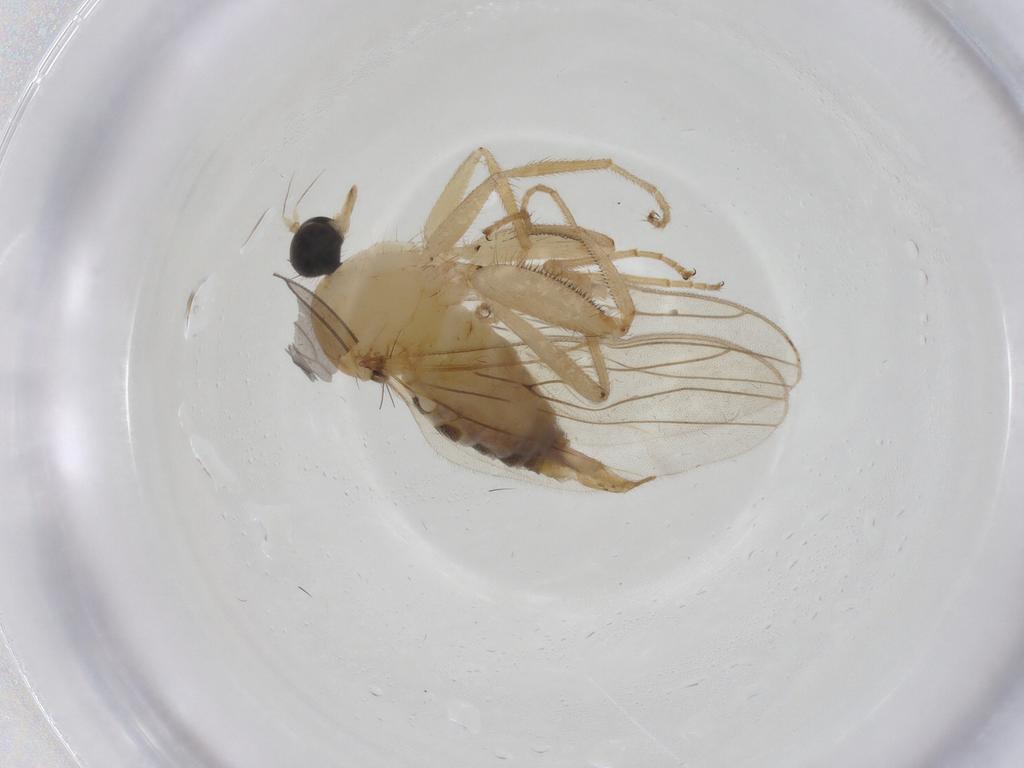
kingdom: Animalia
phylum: Arthropoda
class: Insecta
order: Diptera
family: Hybotidae
